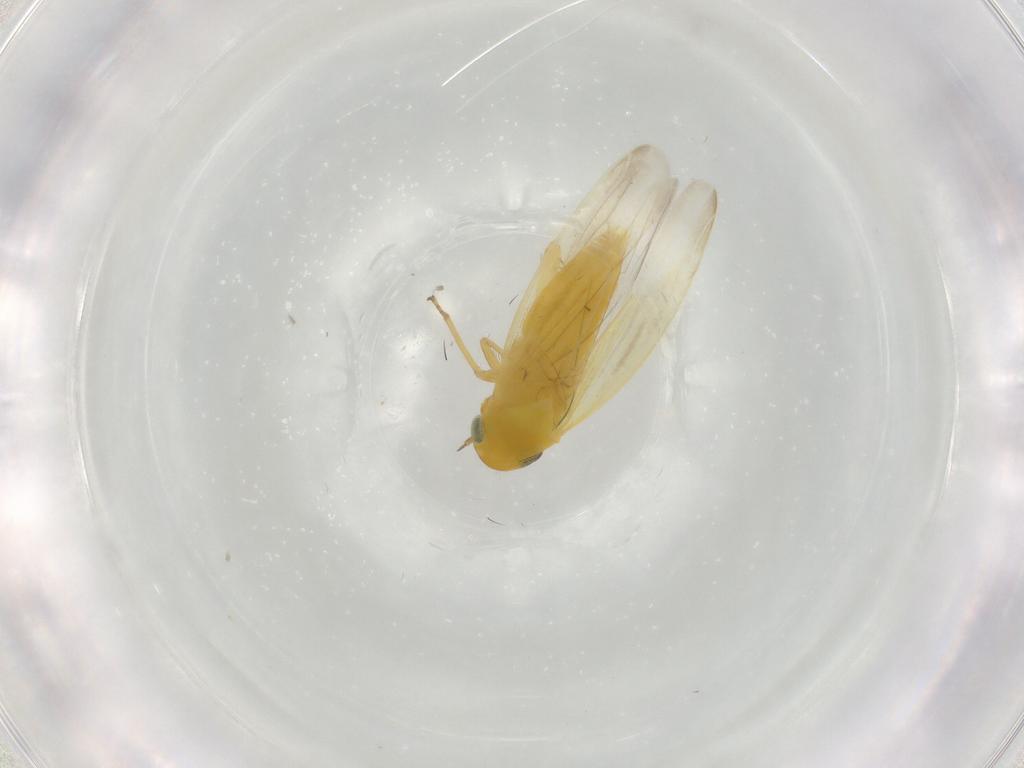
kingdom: Animalia
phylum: Arthropoda
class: Insecta
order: Hemiptera
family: Cicadellidae
